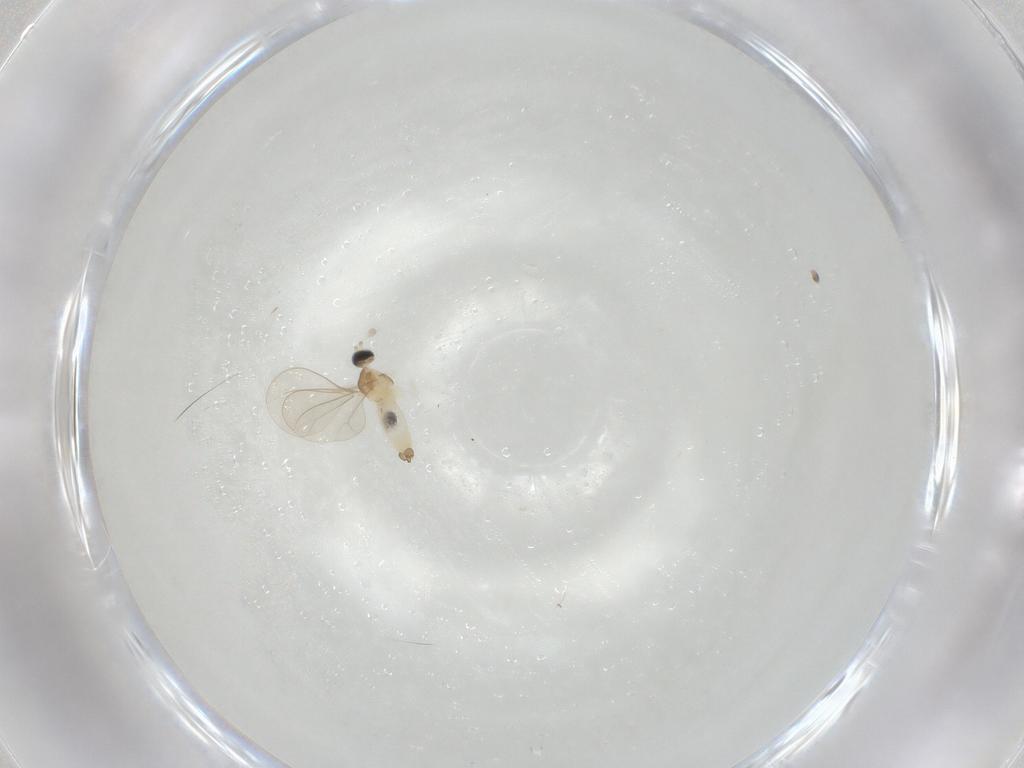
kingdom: Animalia
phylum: Arthropoda
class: Insecta
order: Diptera
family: Cecidomyiidae
